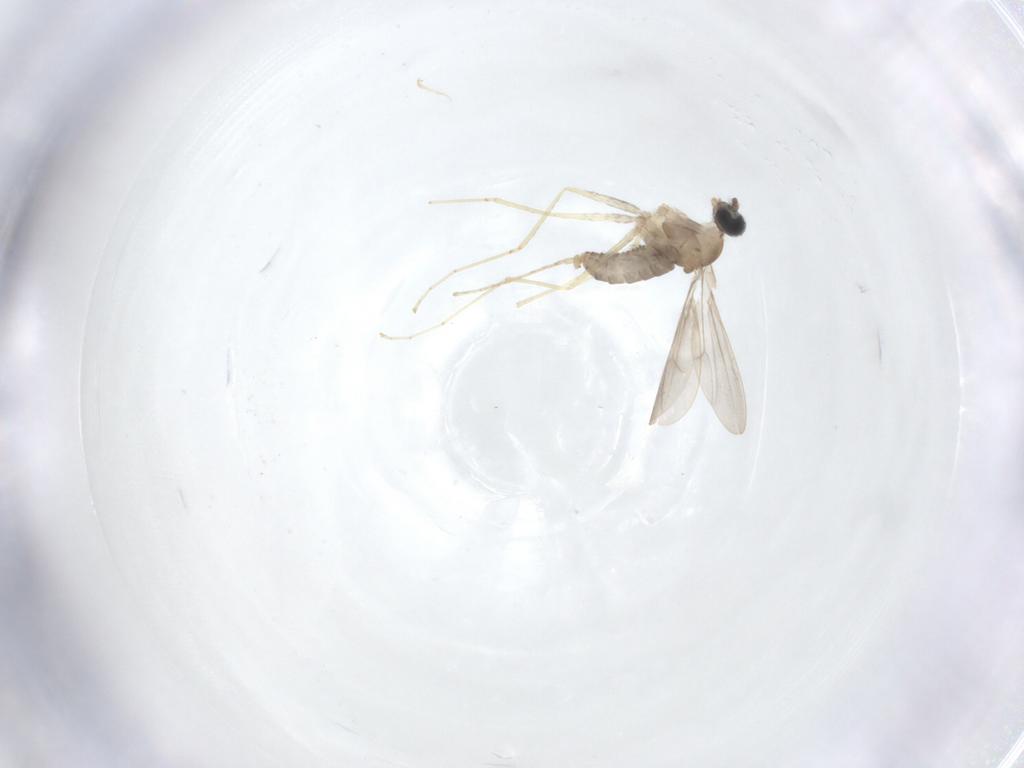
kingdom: Animalia
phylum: Arthropoda
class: Insecta
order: Diptera
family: Cecidomyiidae
